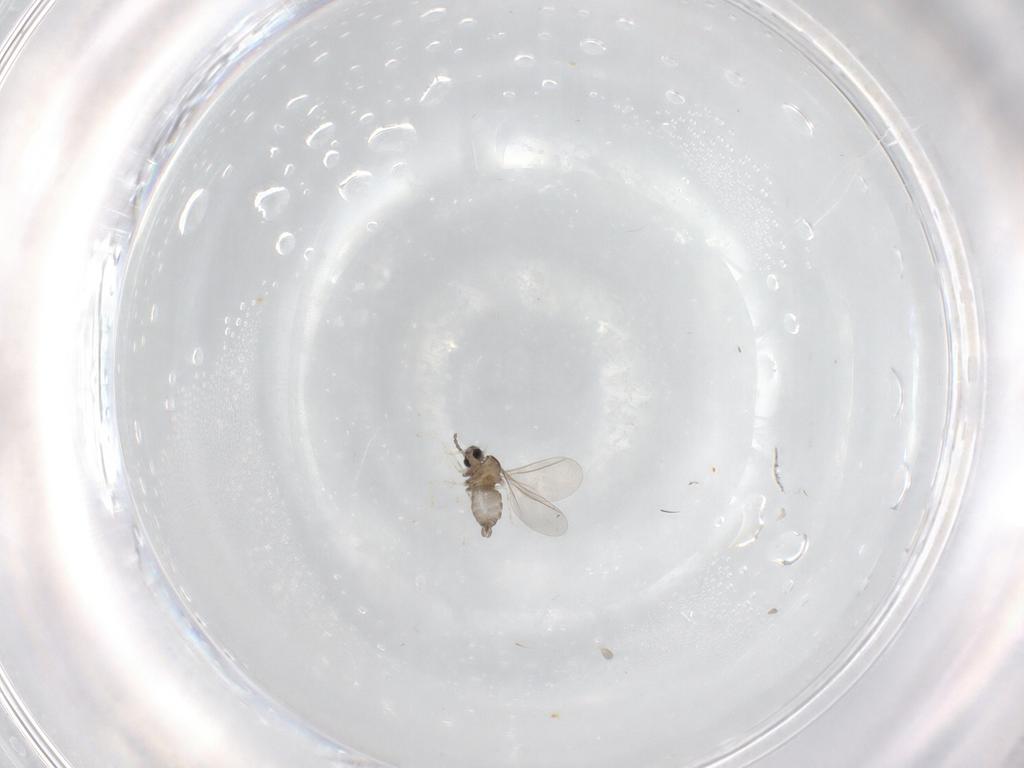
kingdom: Animalia
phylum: Arthropoda
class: Insecta
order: Diptera
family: Cecidomyiidae
